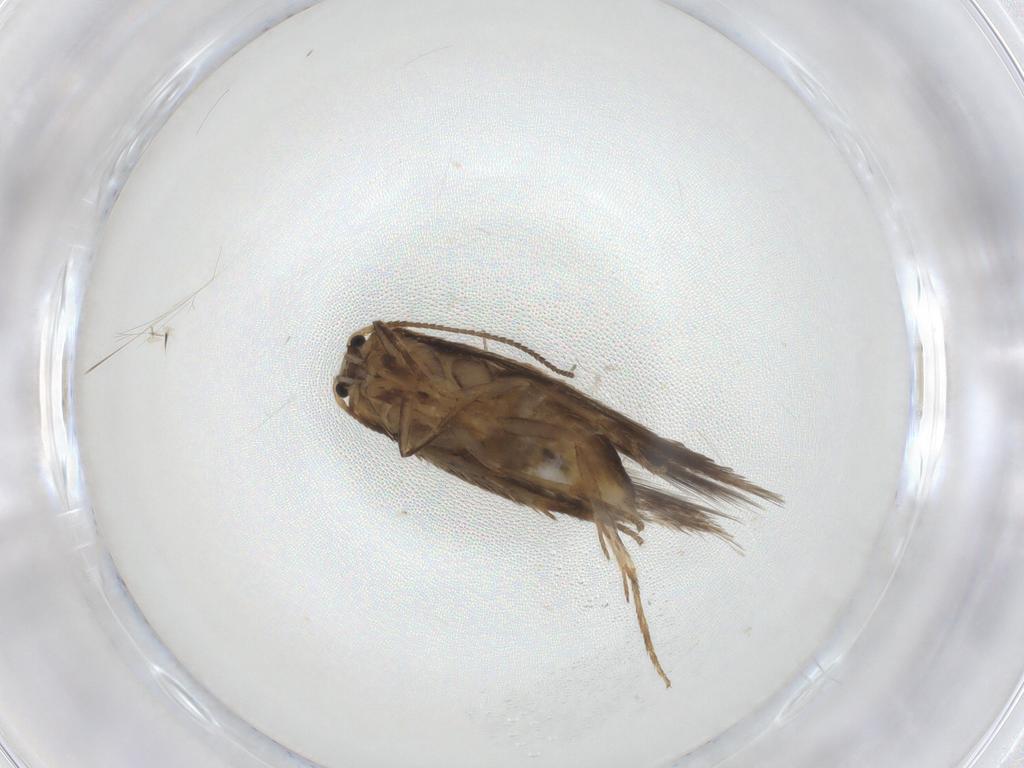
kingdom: Animalia
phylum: Arthropoda
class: Insecta
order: Lepidoptera
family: Nepticulidae
